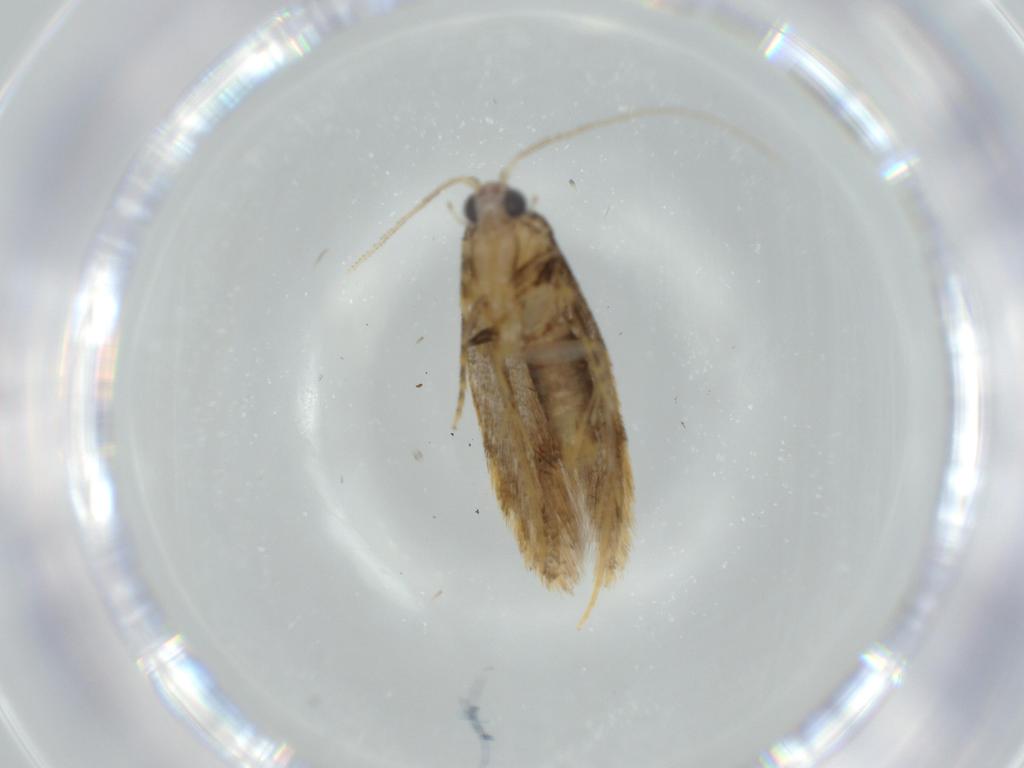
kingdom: Animalia
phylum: Arthropoda
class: Insecta
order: Lepidoptera
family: Tineidae
